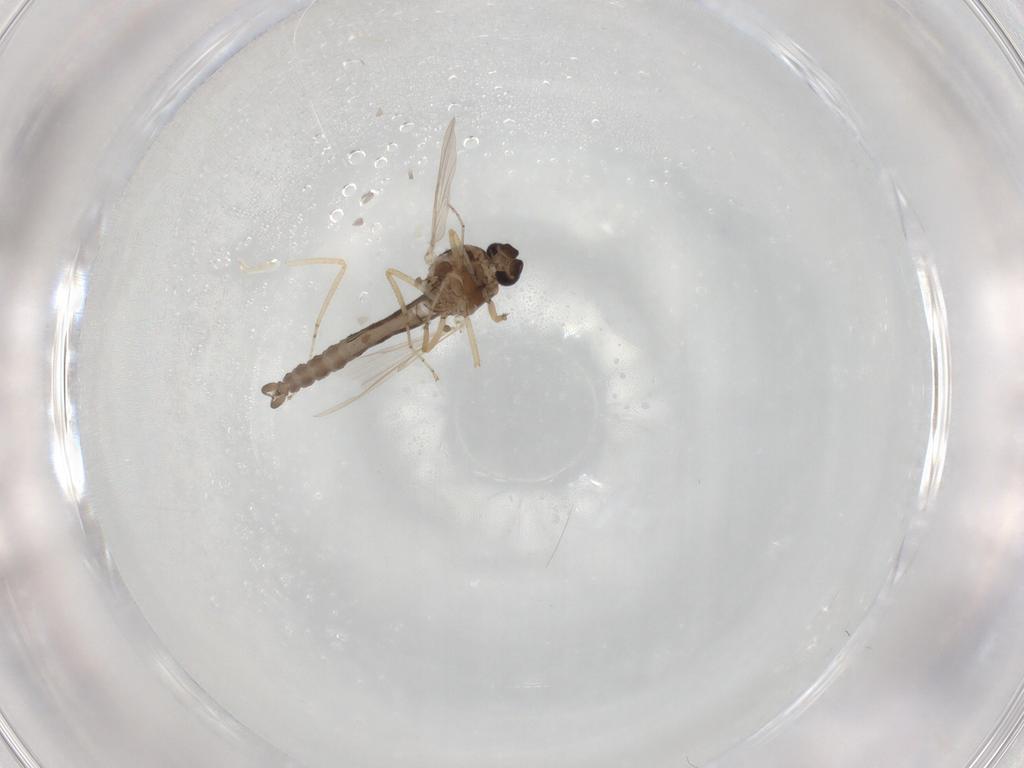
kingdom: Animalia
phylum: Arthropoda
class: Insecta
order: Diptera
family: Ceratopogonidae
